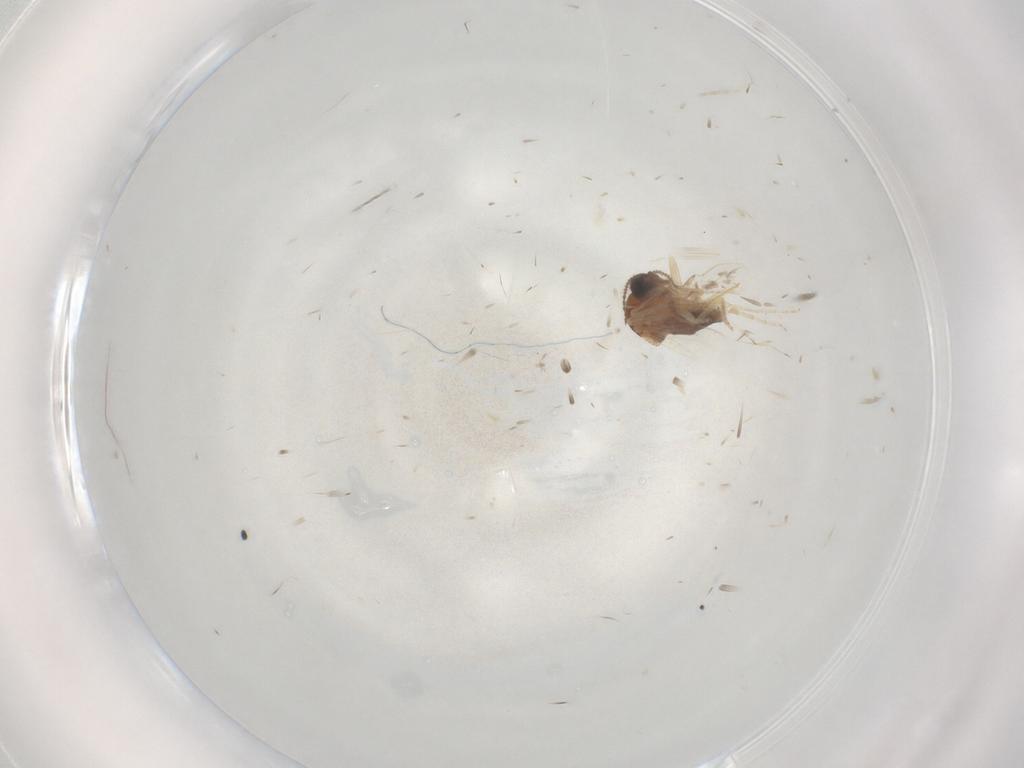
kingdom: Animalia
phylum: Arthropoda
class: Insecta
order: Diptera
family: Ceratopogonidae
